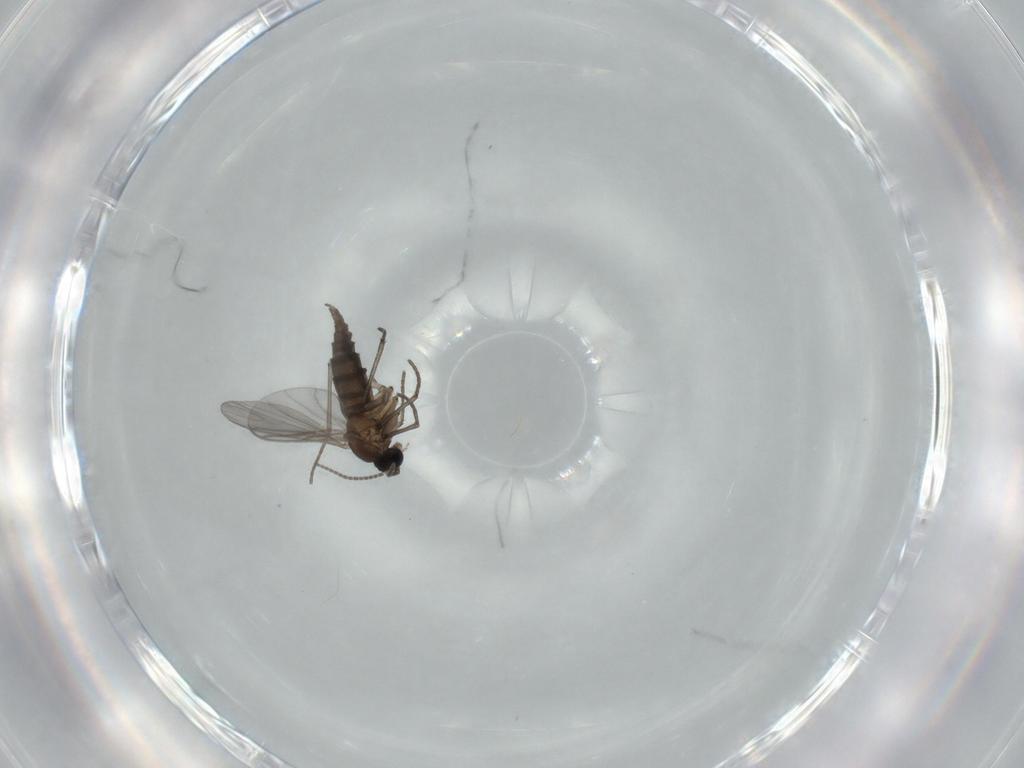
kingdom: Animalia
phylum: Arthropoda
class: Insecta
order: Diptera
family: Sciaridae
